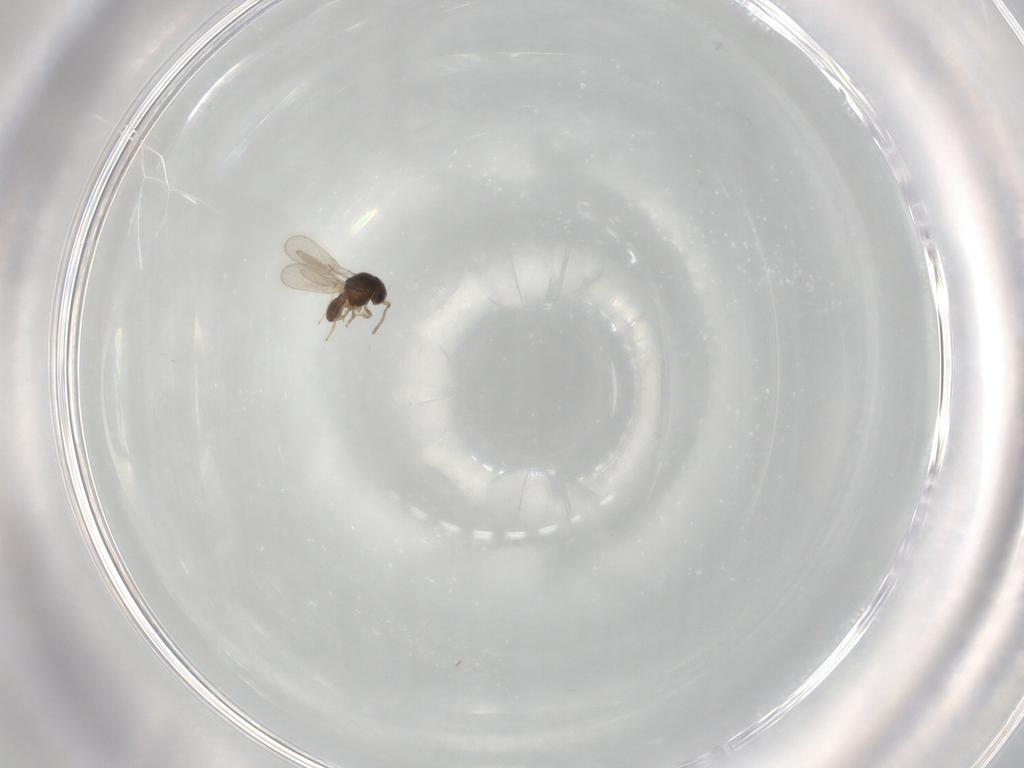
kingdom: Animalia
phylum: Arthropoda
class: Insecta
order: Hymenoptera
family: Scelionidae
